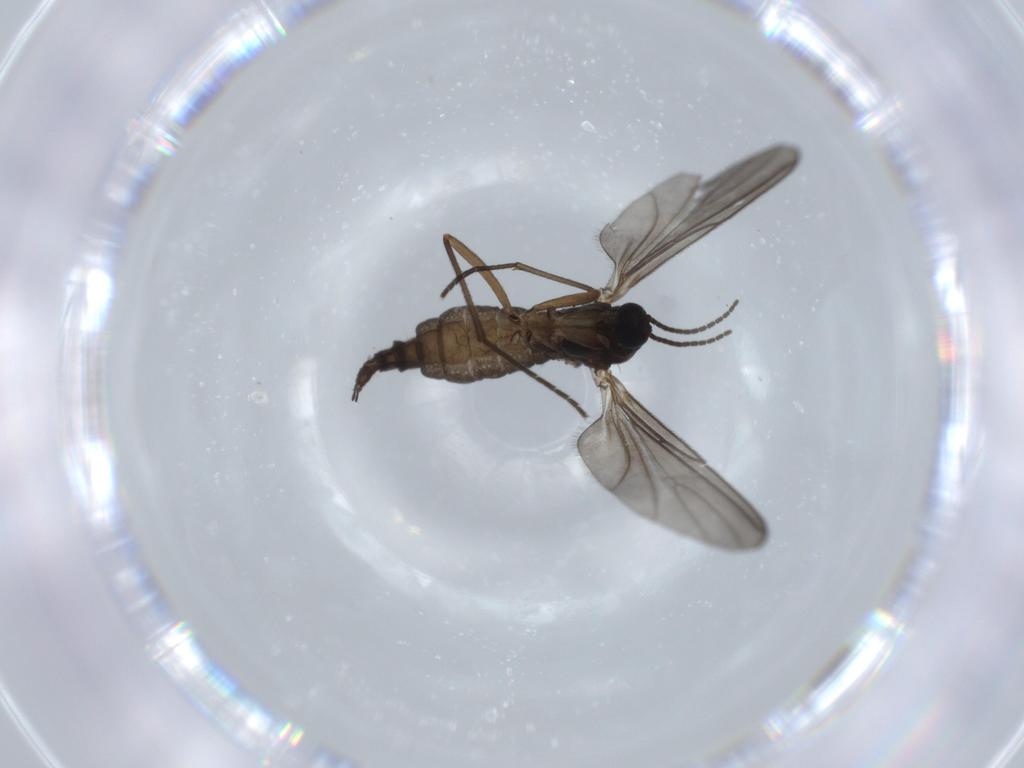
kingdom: Animalia
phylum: Arthropoda
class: Insecta
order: Diptera
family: Sciaridae
